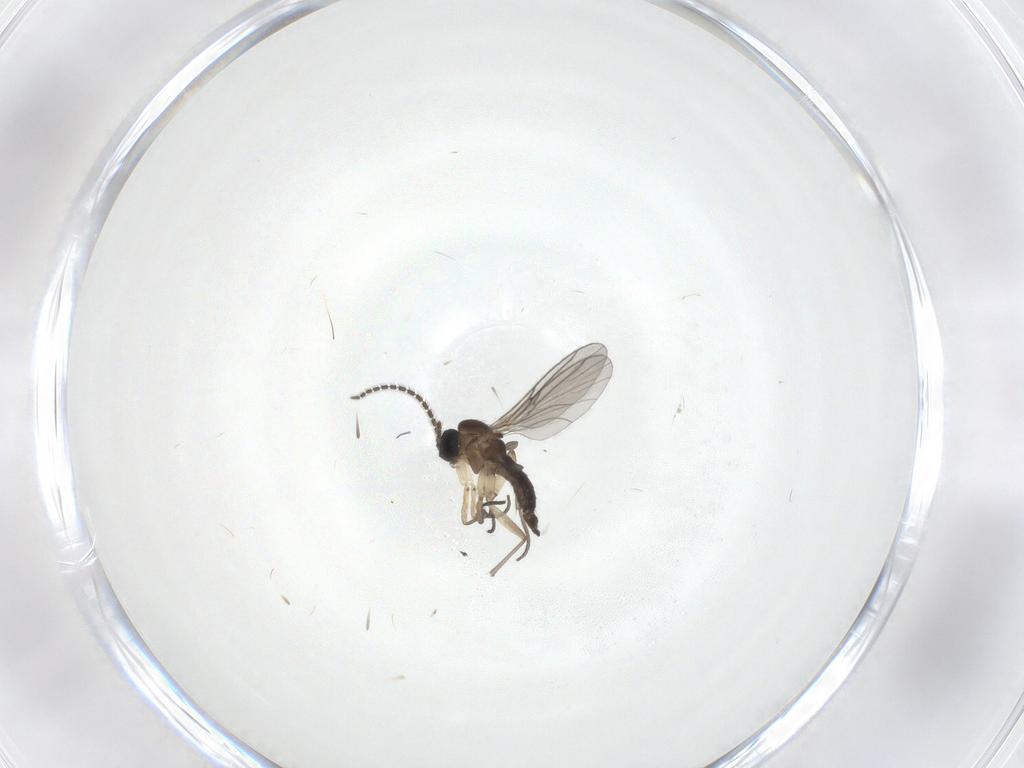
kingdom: Animalia
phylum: Arthropoda
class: Insecta
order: Diptera
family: Sciaridae
